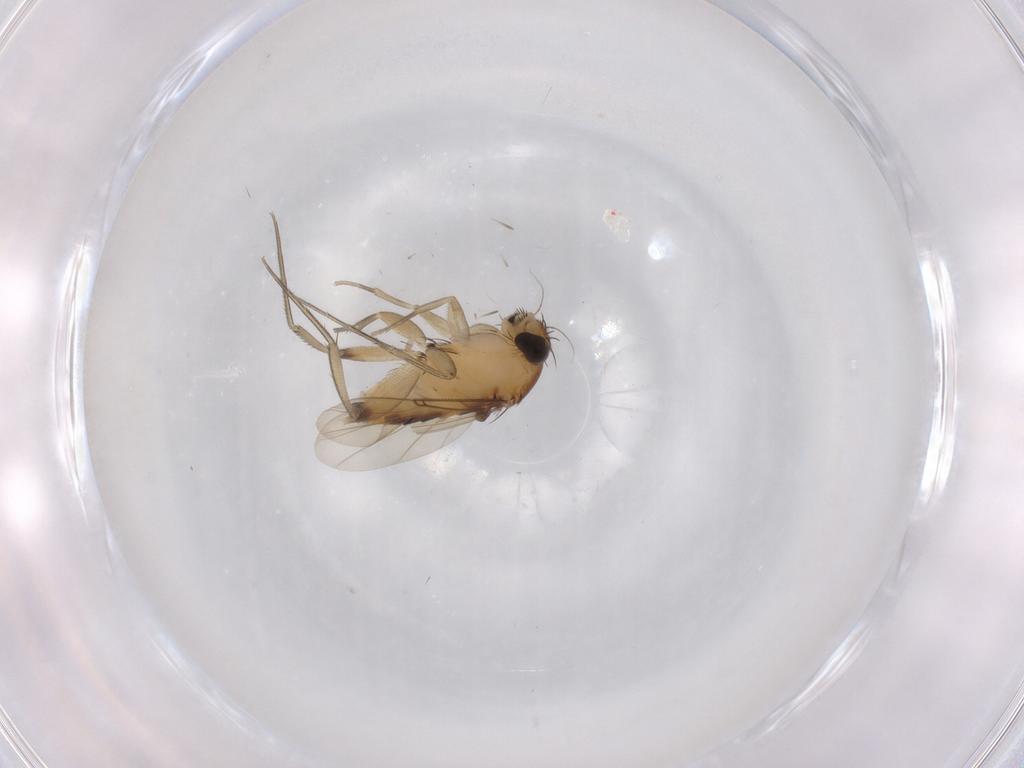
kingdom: Animalia
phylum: Arthropoda
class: Insecta
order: Diptera
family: Phoridae
